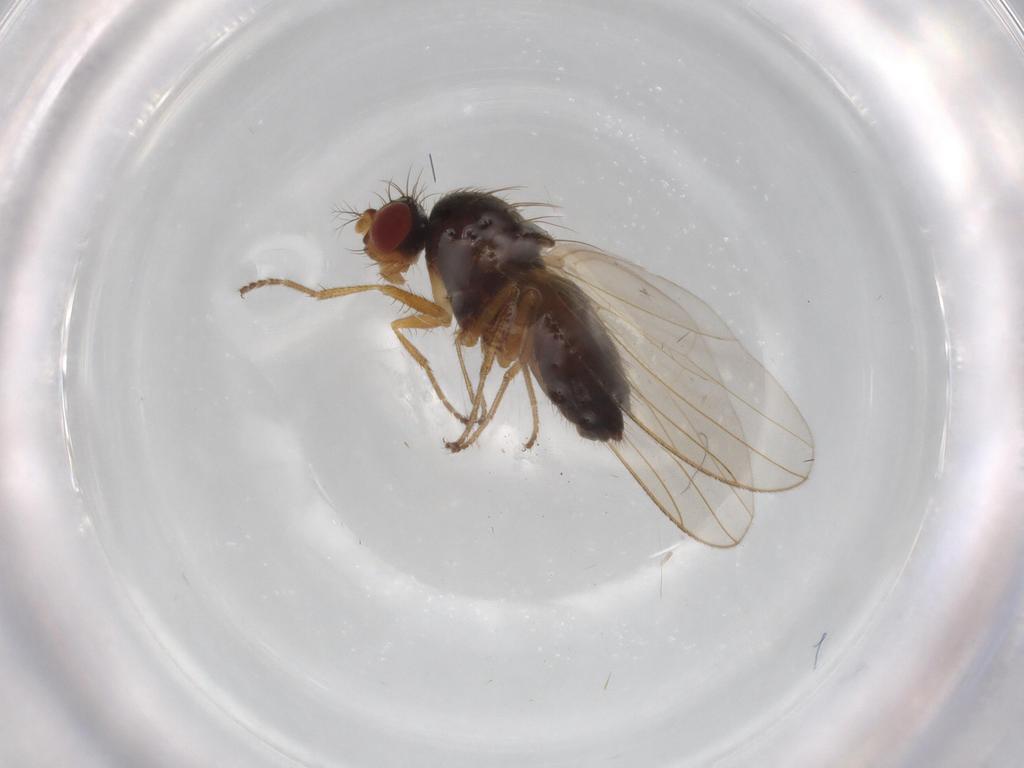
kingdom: Animalia
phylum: Arthropoda
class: Insecta
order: Diptera
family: Drosophilidae
